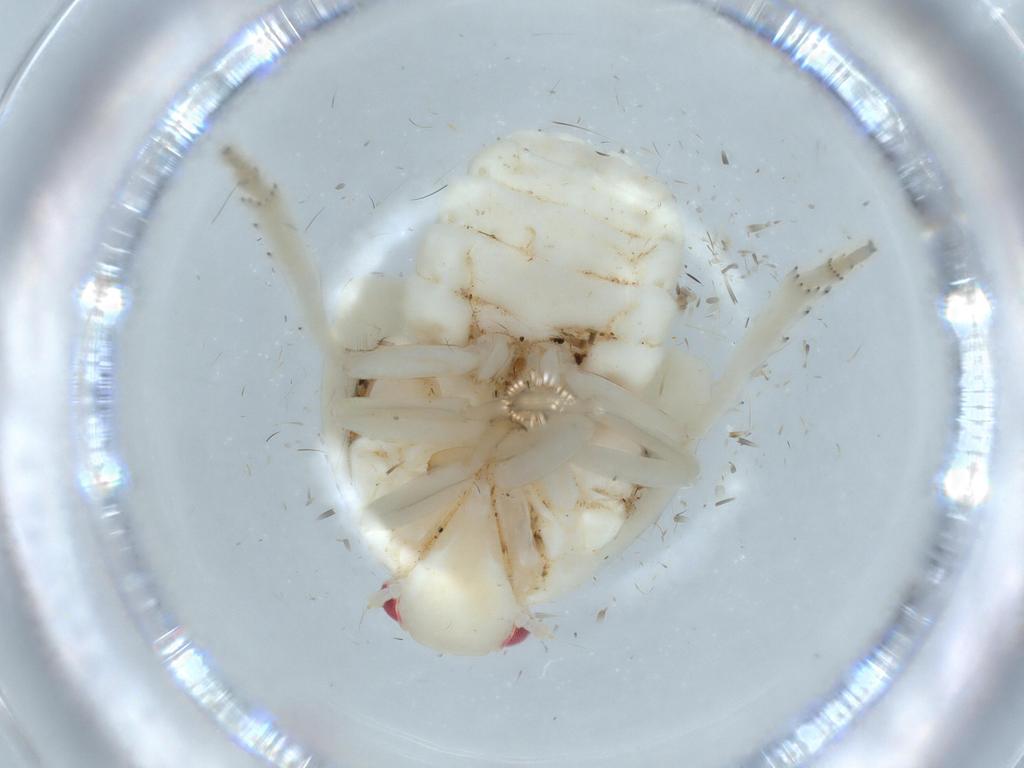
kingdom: Animalia
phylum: Arthropoda
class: Insecta
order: Hemiptera
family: Flatidae
